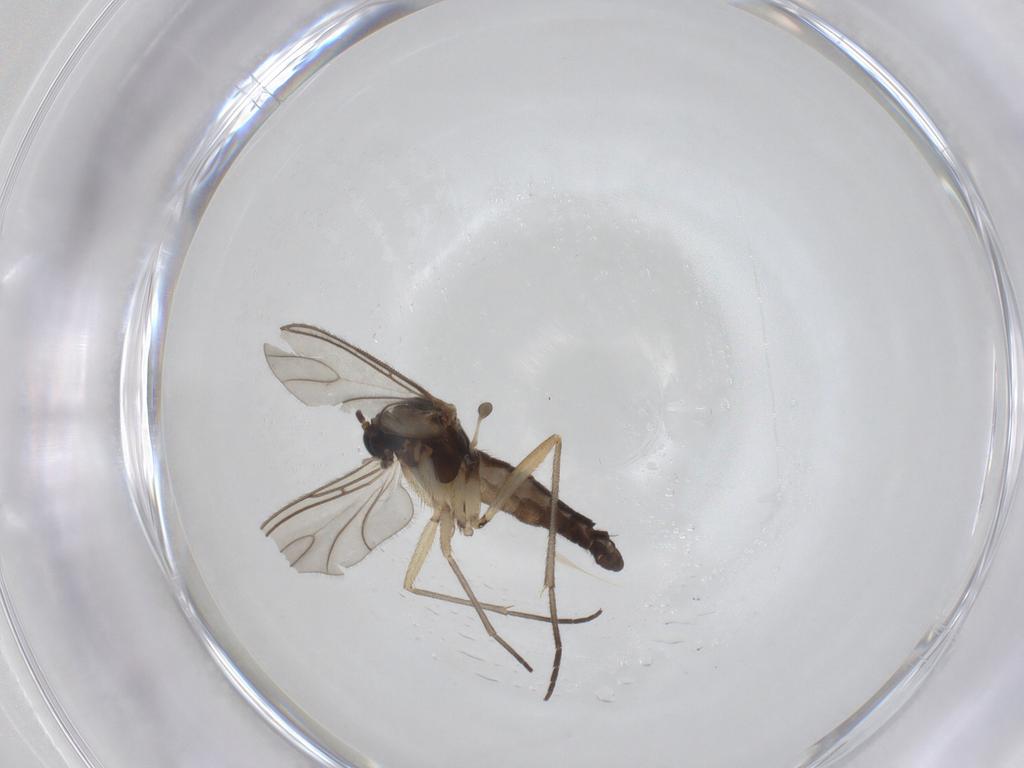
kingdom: Animalia
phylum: Arthropoda
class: Insecta
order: Diptera
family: Sciaridae
